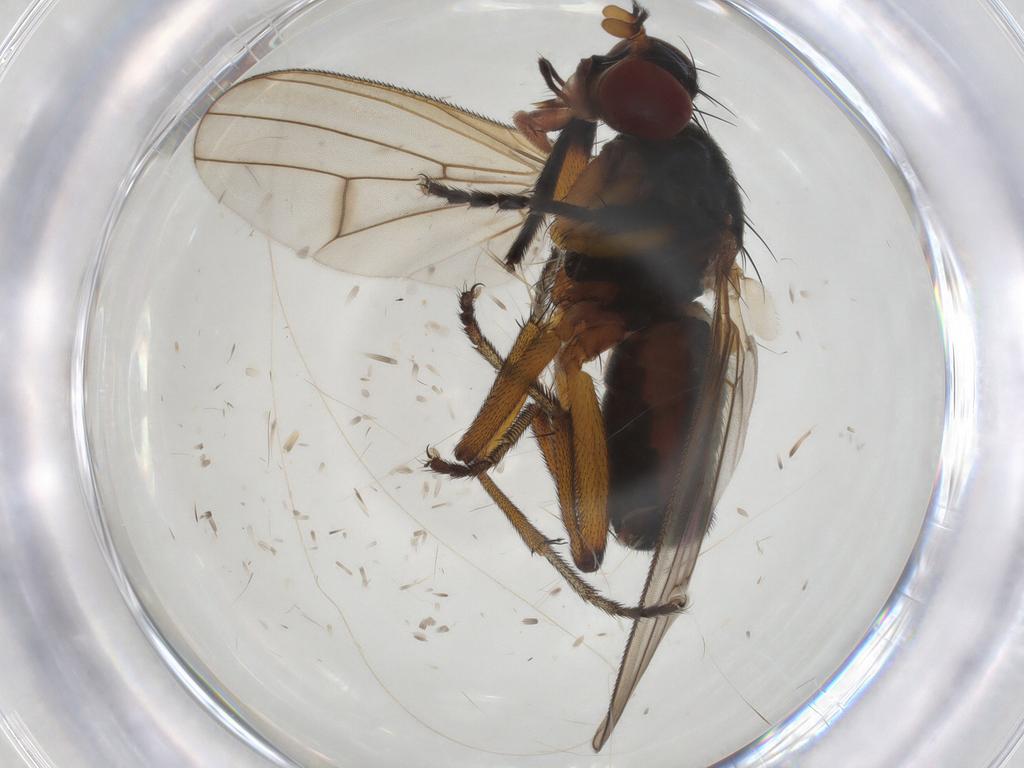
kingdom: Animalia
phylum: Arthropoda
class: Insecta
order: Diptera
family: Sciomyzidae
